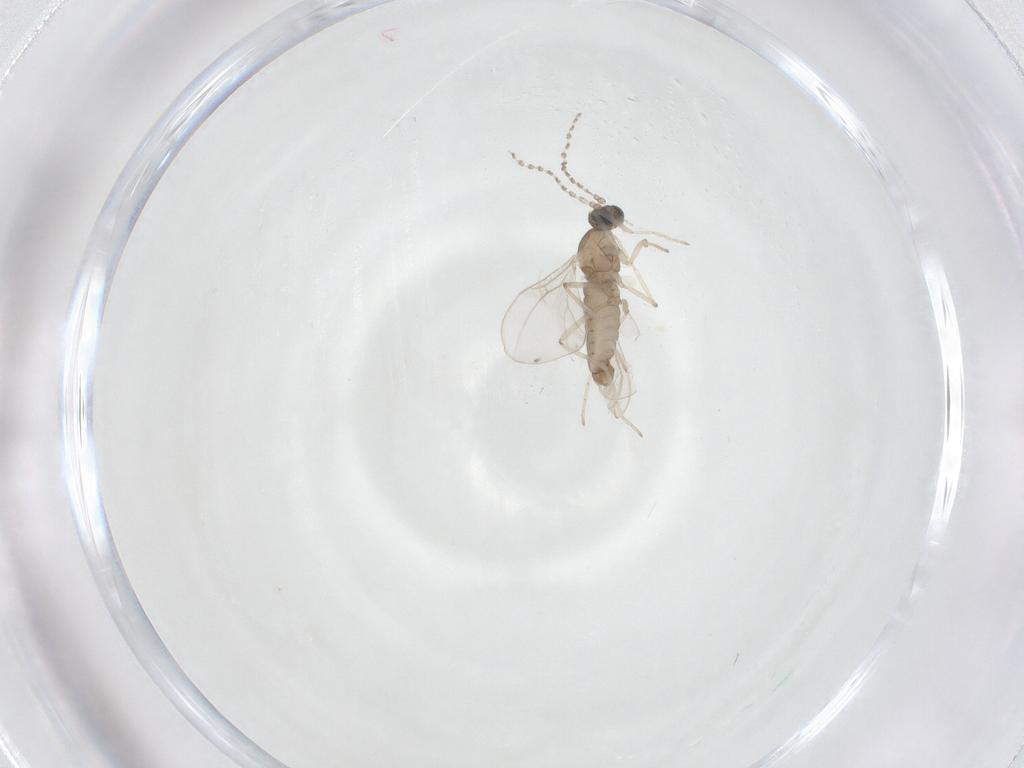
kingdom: Animalia
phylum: Arthropoda
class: Insecta
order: Diptera
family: Cecidomyiidae
